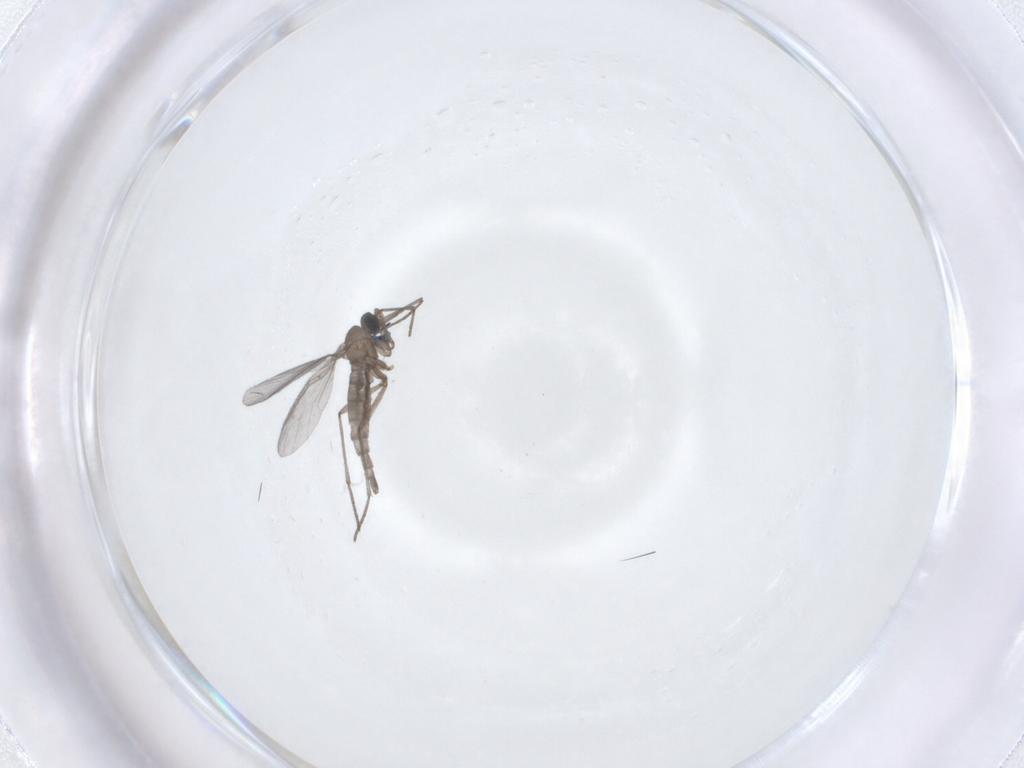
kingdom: Animalia
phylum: Arthropoda
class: Insecta
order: Diptera
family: Sciaridae
